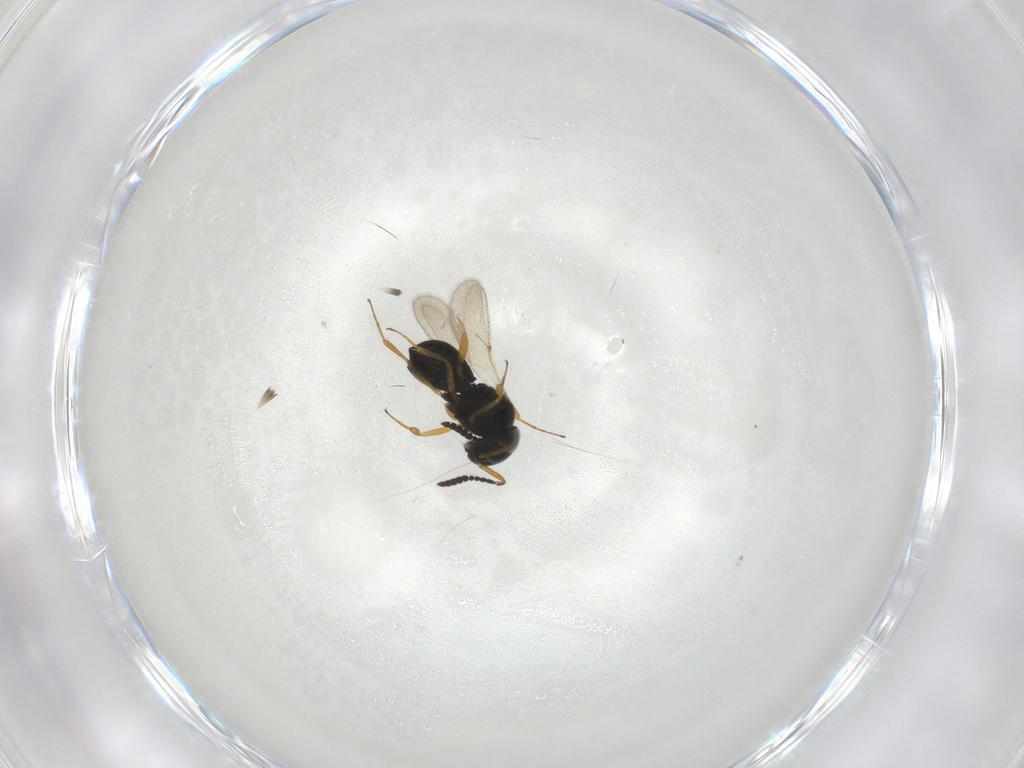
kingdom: Animalia
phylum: Arthropoda
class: Insecta
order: Hymenoptera
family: Scelionidae
